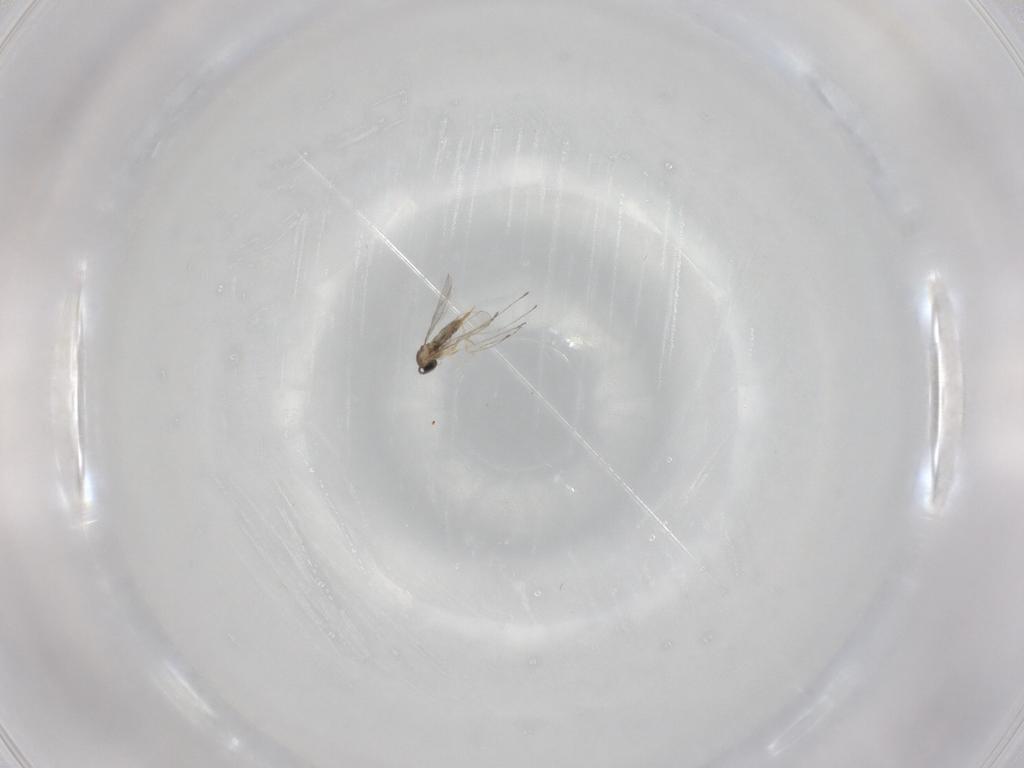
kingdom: Animalia
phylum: Arthropoda
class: Insecta
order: Diptera
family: Cecidomyiidae
